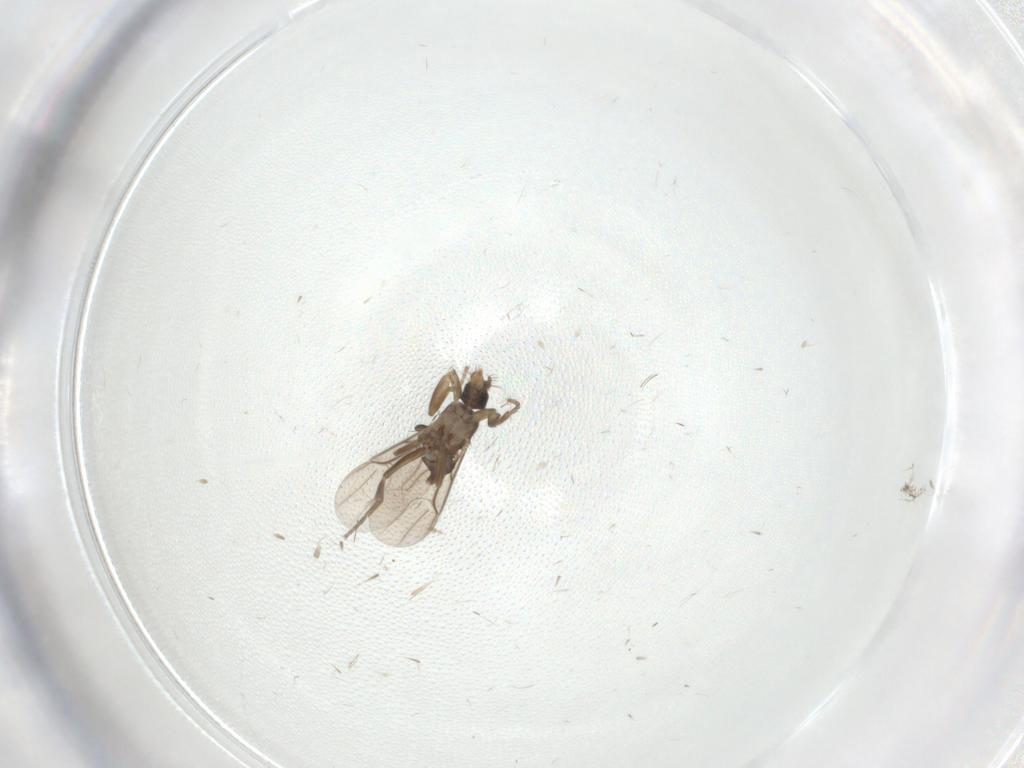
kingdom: Animalia
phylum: Arthropoda
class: Insecta
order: Diptera
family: Phoridae
